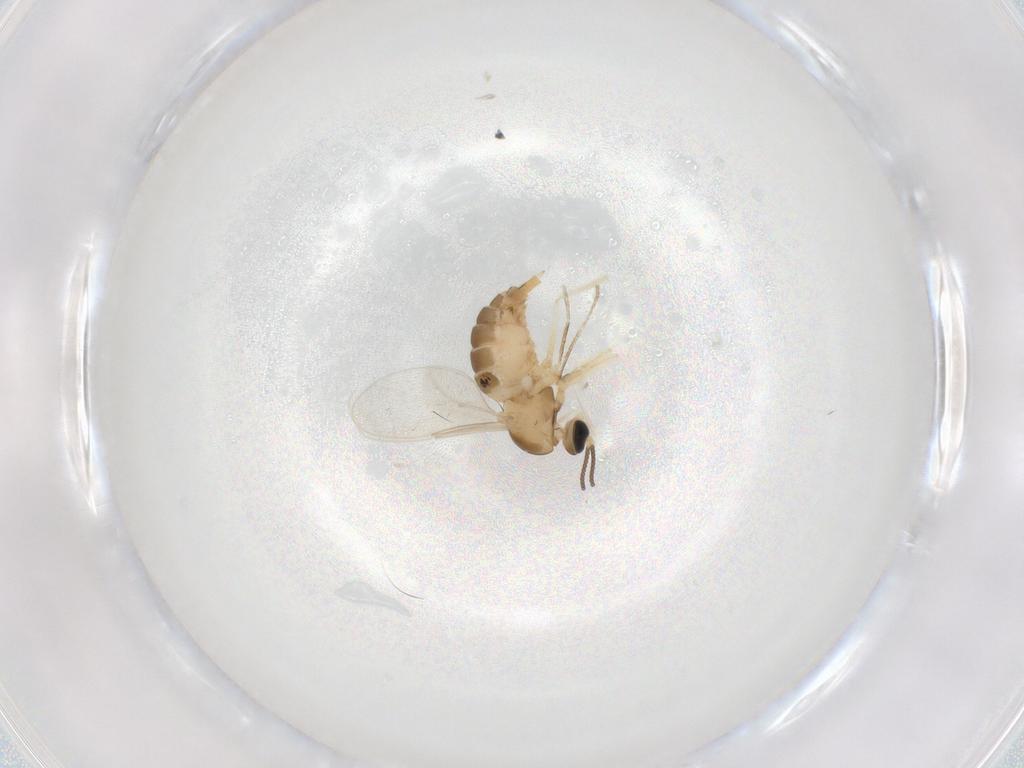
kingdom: Animalia
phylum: Arthropoda
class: Insecta
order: Diptera
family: Cecidomyiidae
